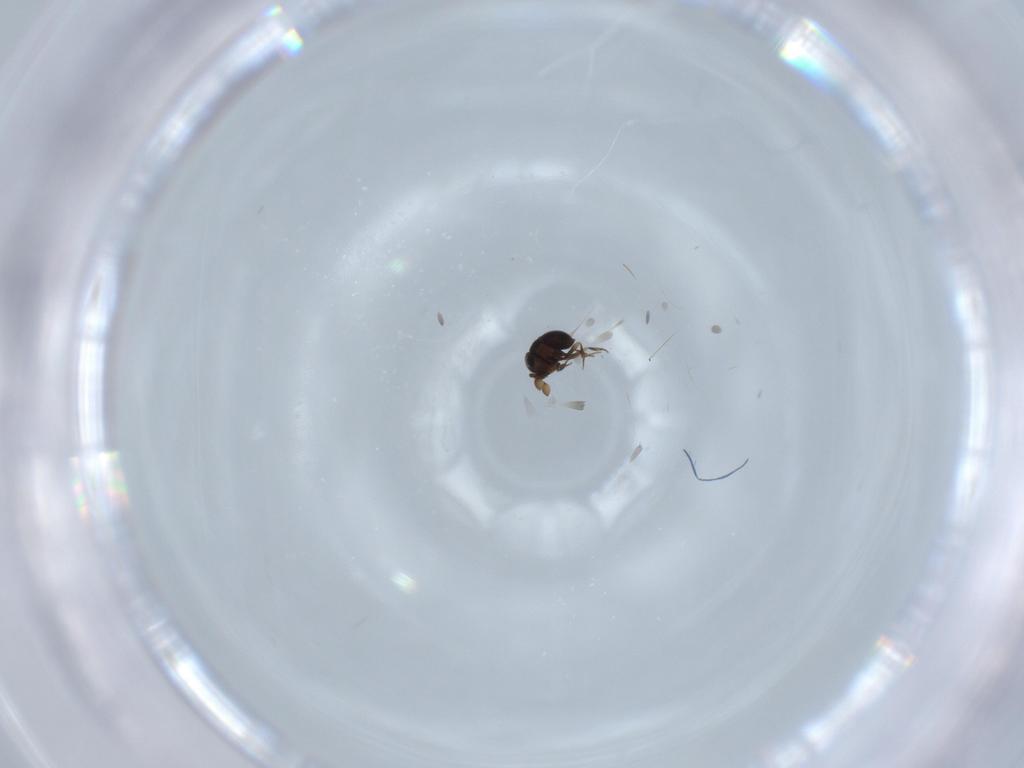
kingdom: Animalia
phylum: Arthropoda
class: Insecta
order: Hymenoptera
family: Scelionidae
